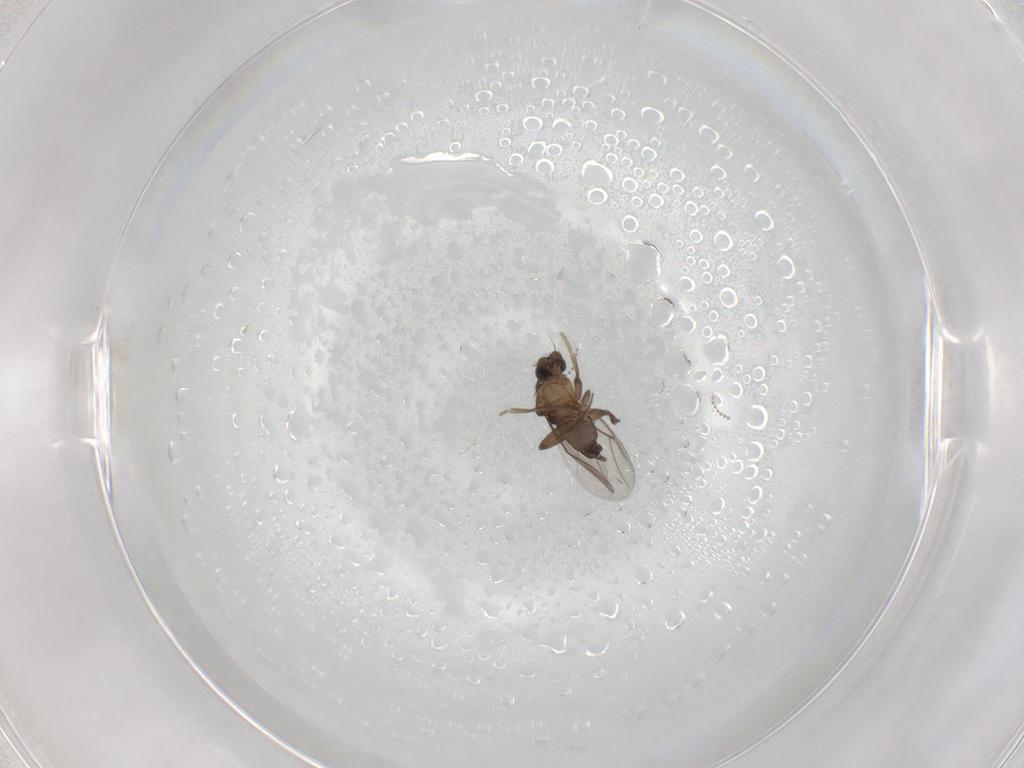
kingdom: Animalia
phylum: Arthropoda
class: Insecta
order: Diptera
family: Phoridae
